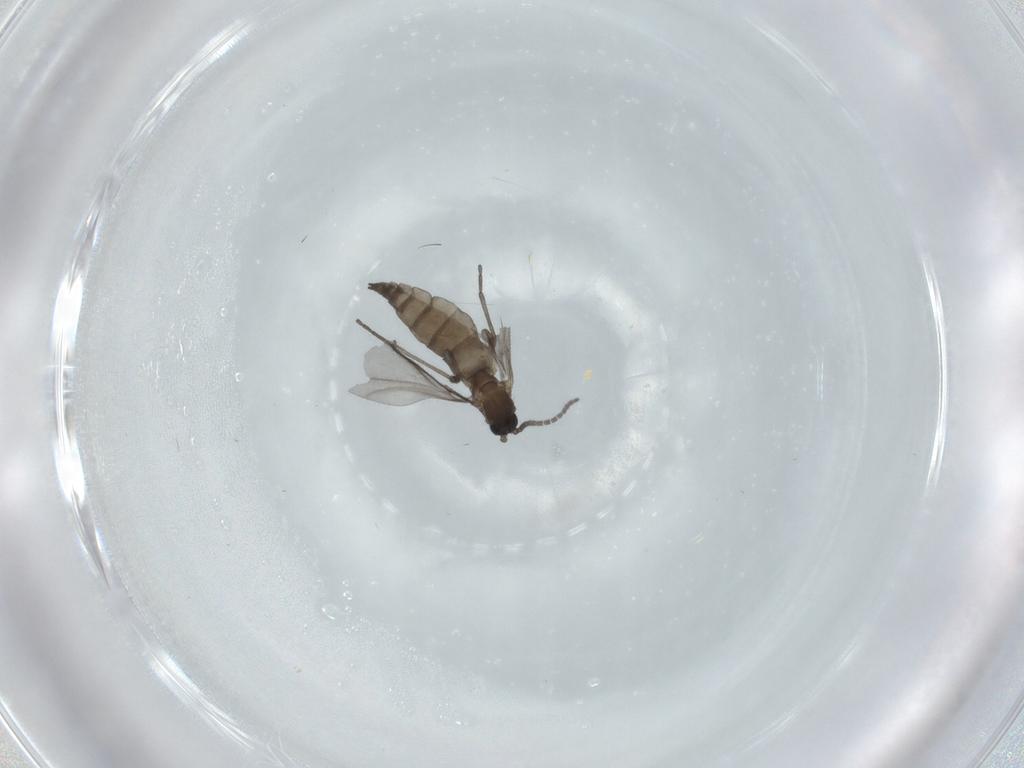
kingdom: Animalia
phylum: Arthropoda
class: Insecta
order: Diptera
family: Sciaridae
